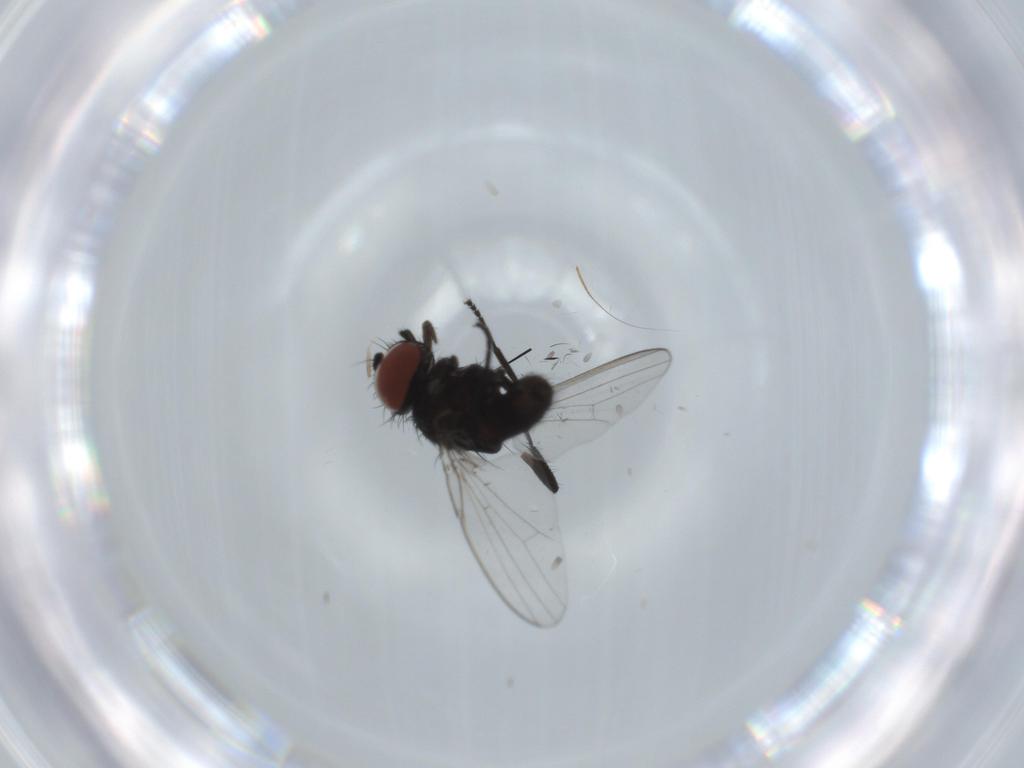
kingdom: Animalia
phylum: Arthropoda
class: Insecta
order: Diptera
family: Milichiidae
